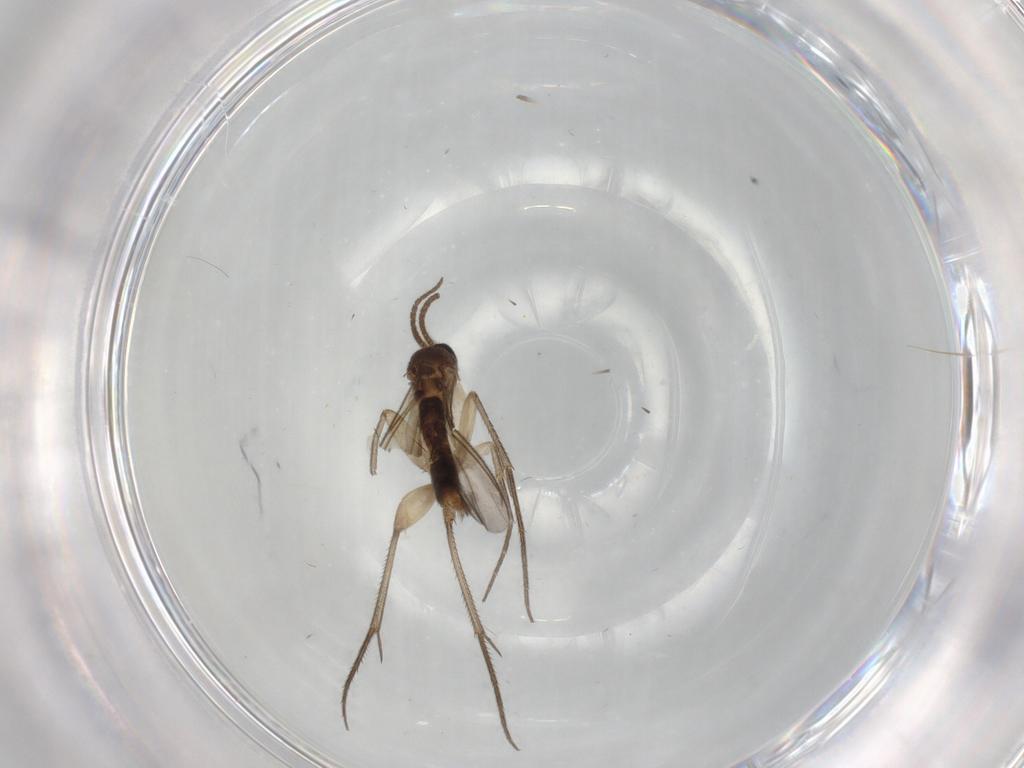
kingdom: Animalia
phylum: Arthropoda
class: Insecta
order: Diptera
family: Mycetophilidae
